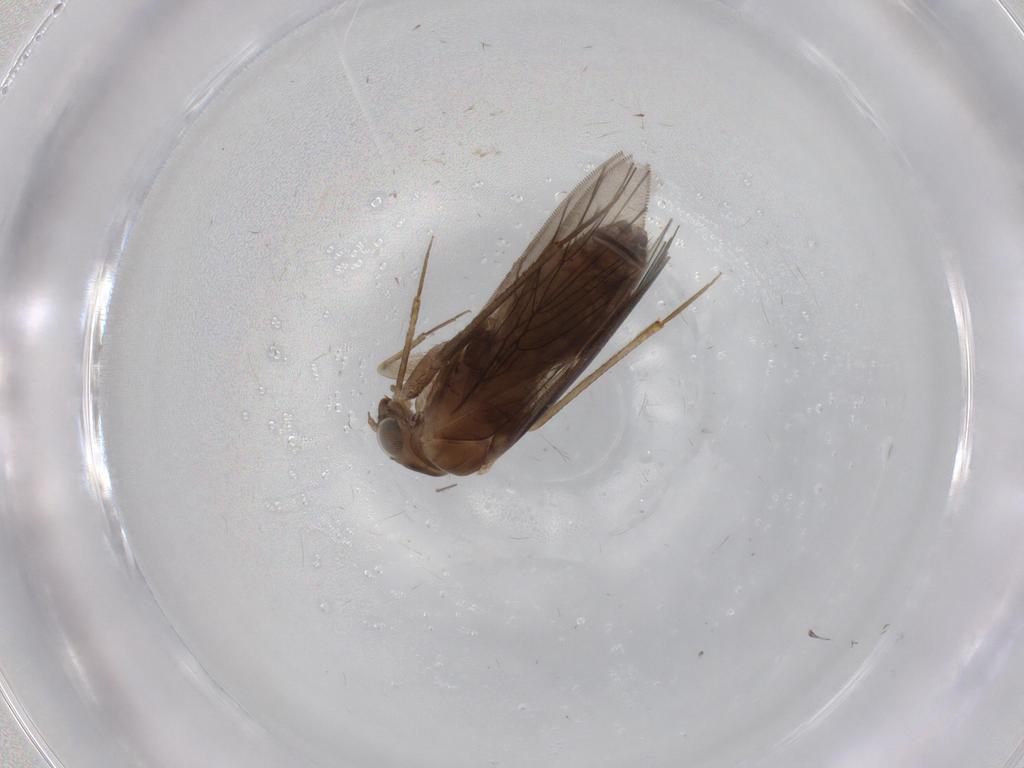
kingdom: Animalia
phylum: Arthropoda
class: Insecta
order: Psocodea
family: Lepidopsocidae
